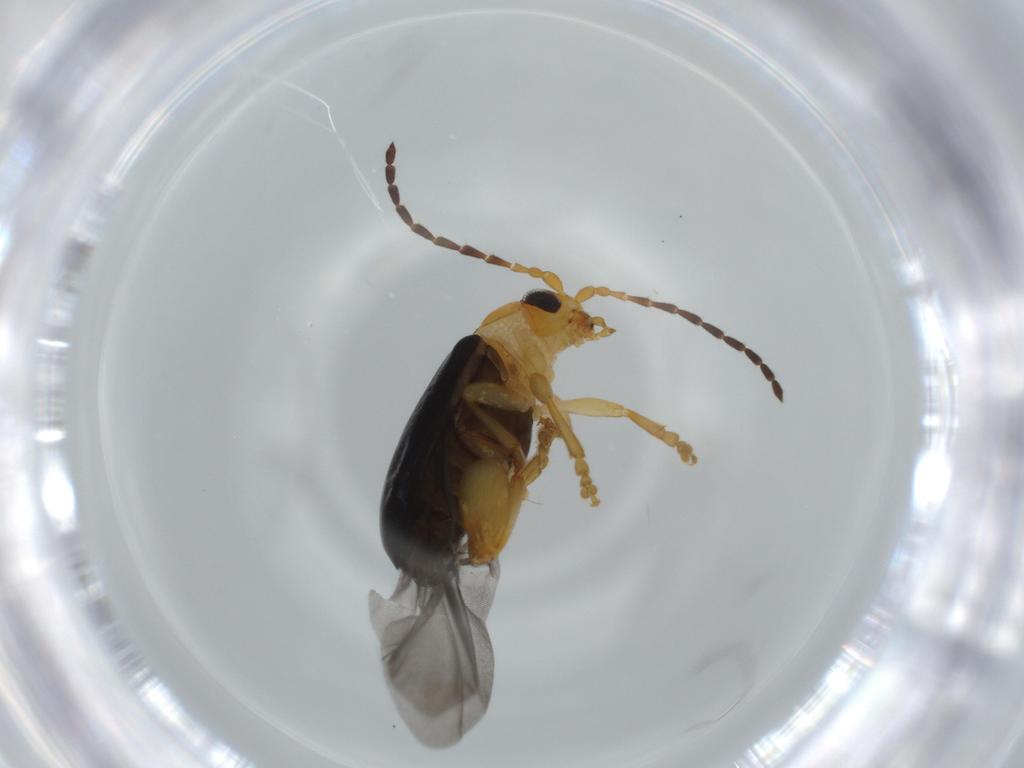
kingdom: Animalia
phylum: Arthropoda
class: Insecta
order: Coleoptera
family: Chrysomelidae
